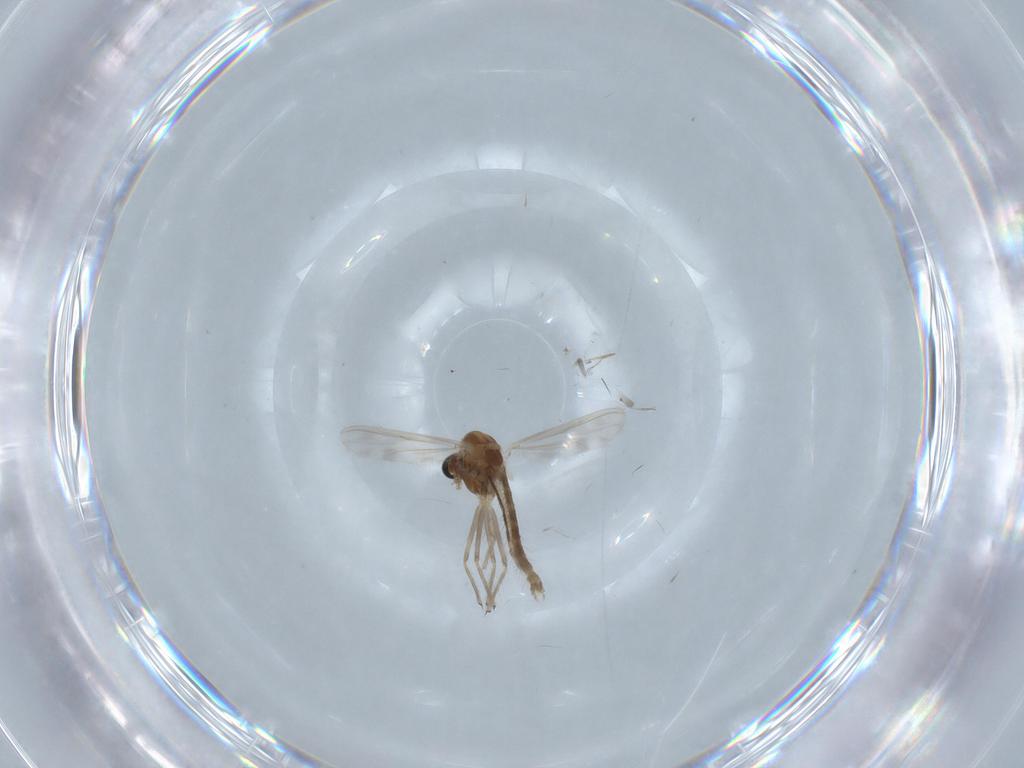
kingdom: Animalia
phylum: Arthropoda
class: Insecta
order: Diptera
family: Chironomidae
